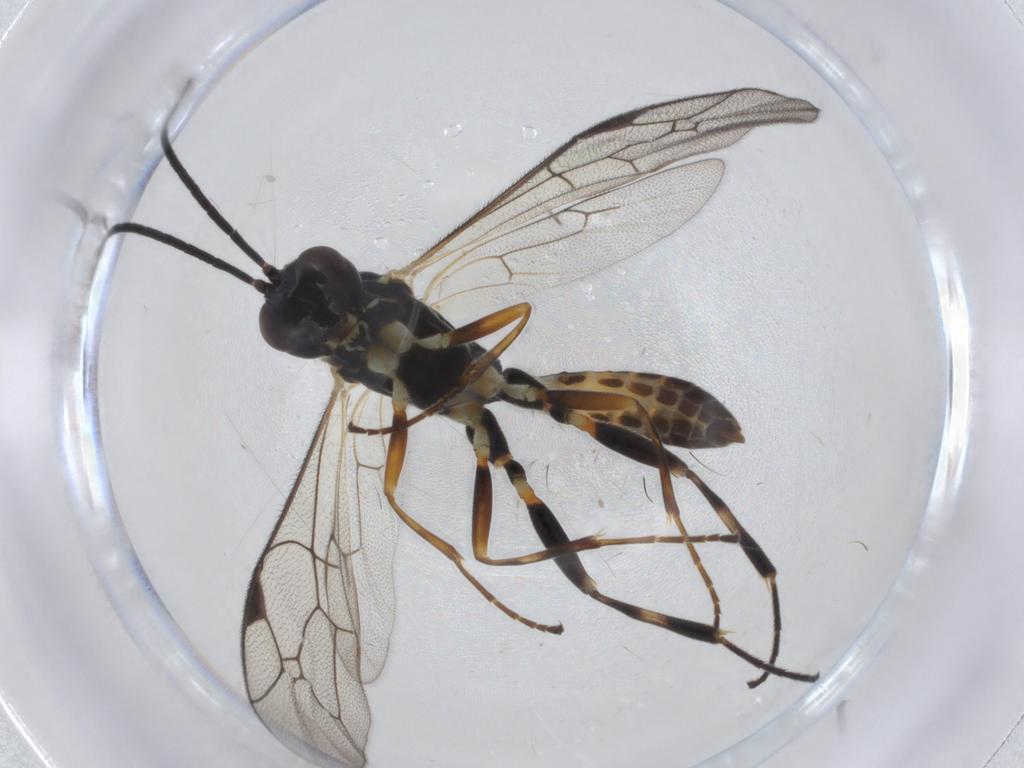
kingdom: Animalia
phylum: Arthropoda
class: Insecta
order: Hymenoptera
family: Ichneumonidae
